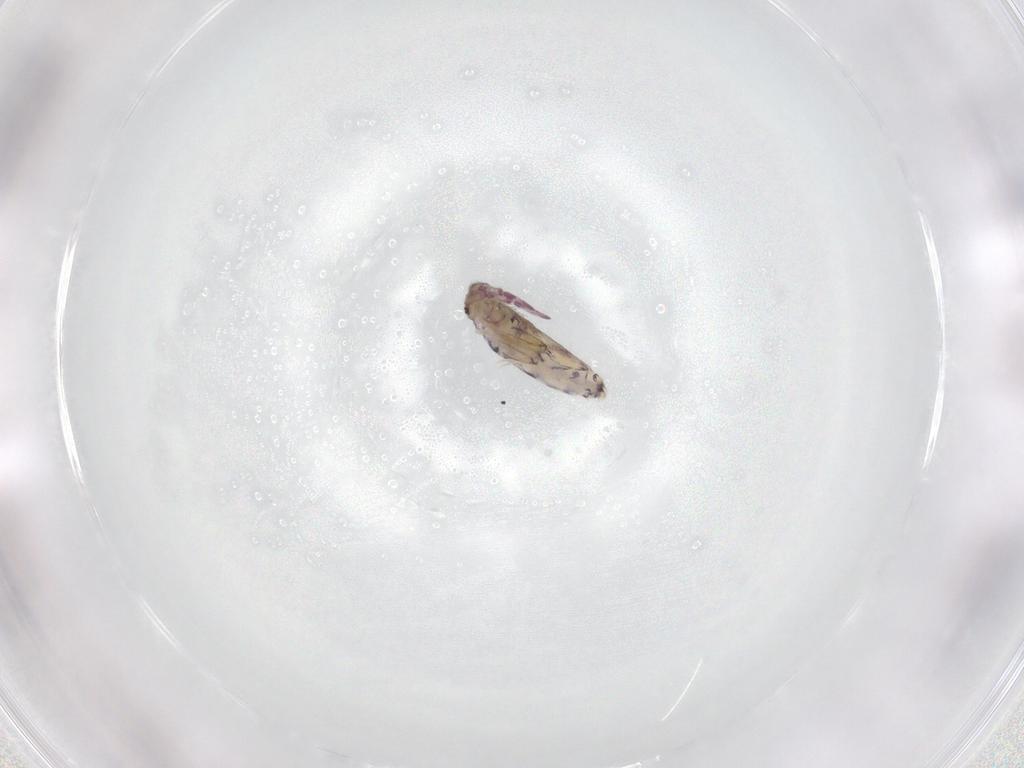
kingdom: Animalia
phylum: Arthropoda
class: Collembola
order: Entomobryomorpha
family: Entomobryidae
